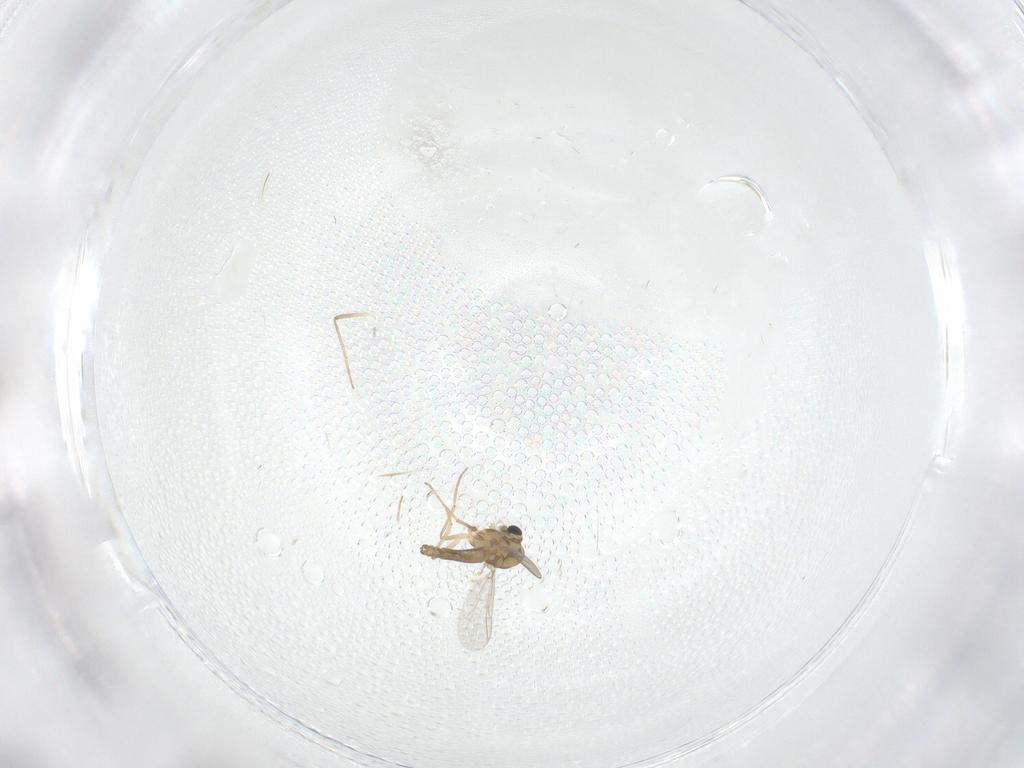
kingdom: Animalia
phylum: Arthropoda
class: Insecta
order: Diptera
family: Chironomidae
